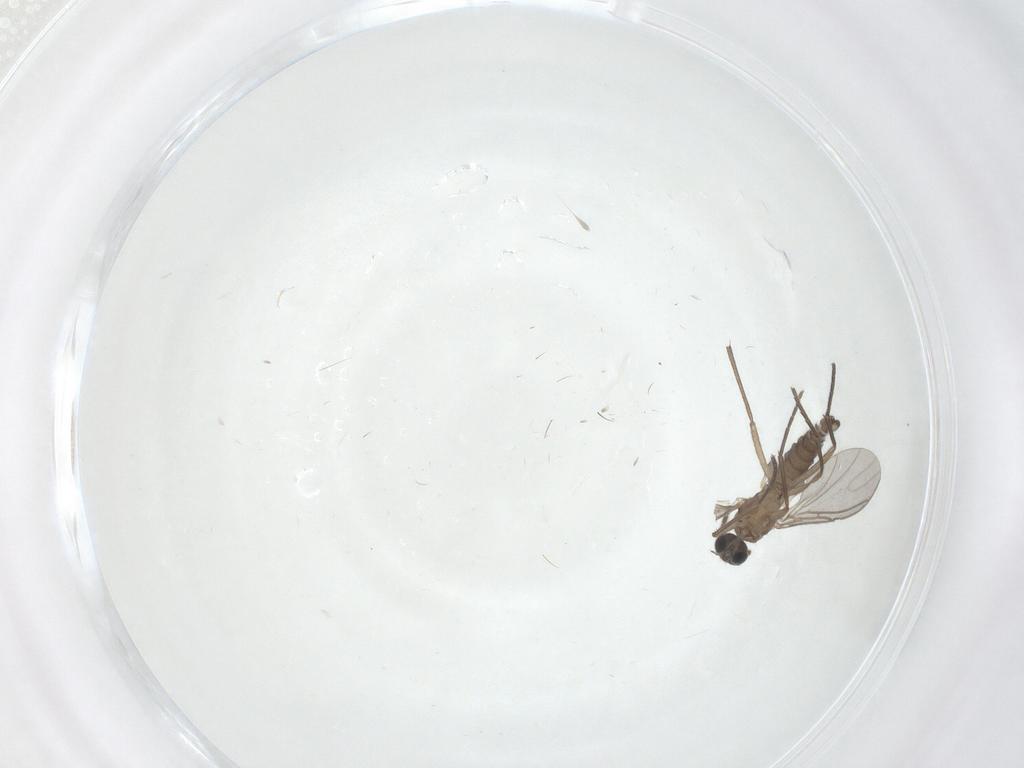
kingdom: Animalia
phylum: Arthropoda
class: Insecta
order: Diptera
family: Sciaridae
